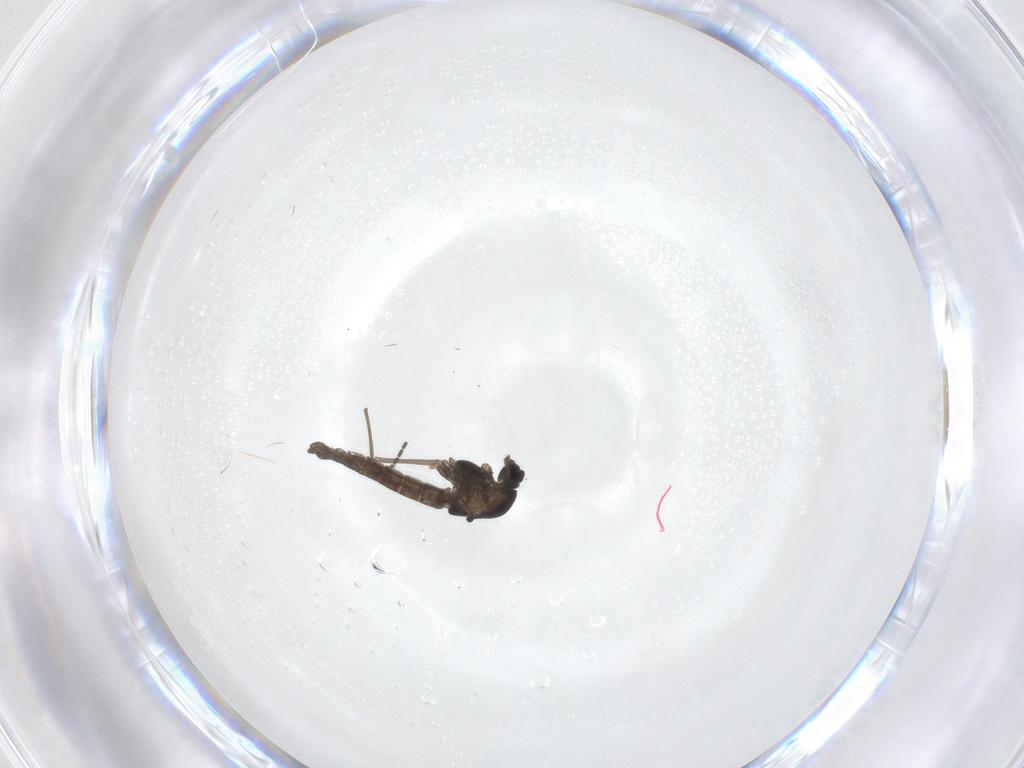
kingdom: Animalia
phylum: Arthropoda
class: Insecta
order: Diptera
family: Chironomidae
